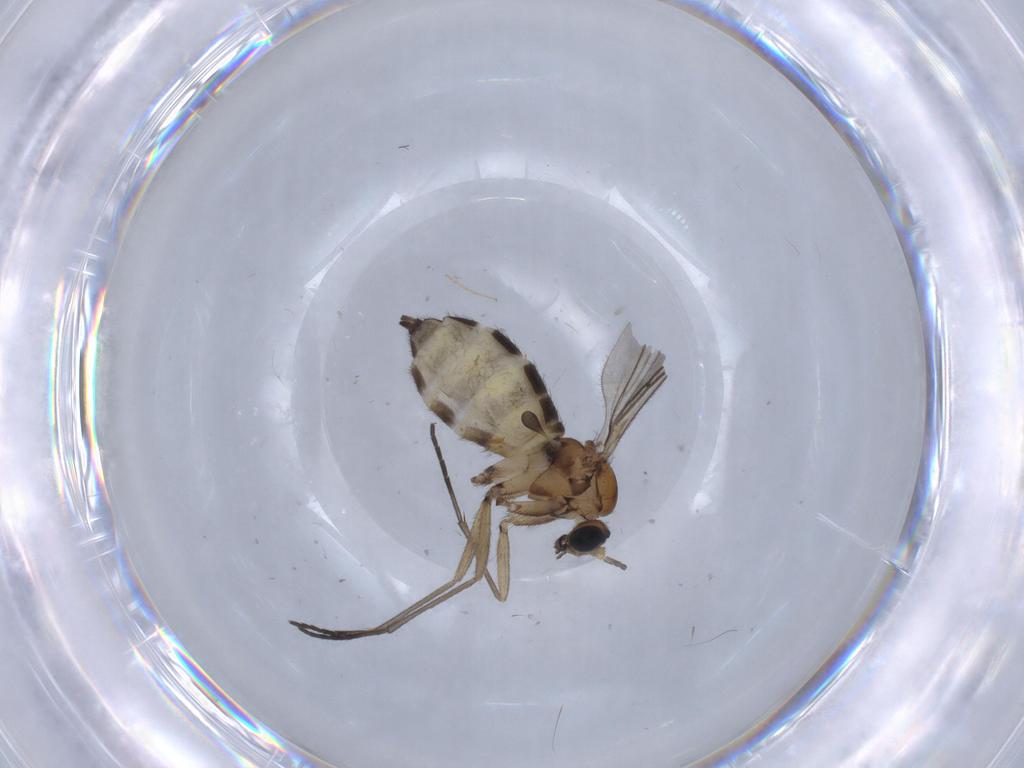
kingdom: Animalia
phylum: Arthropoda
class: Insecta
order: Diptera
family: Sciaridae
